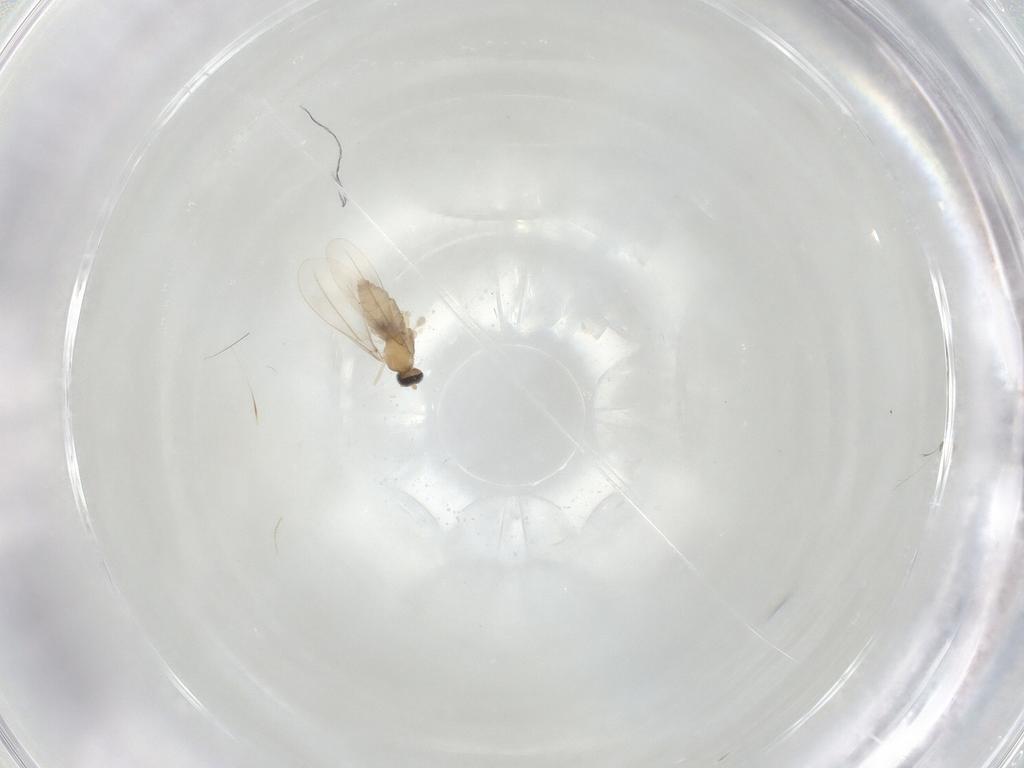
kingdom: Animalia
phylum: Arthropoda
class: Insecta
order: Diptera
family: Cecidomyiidae
